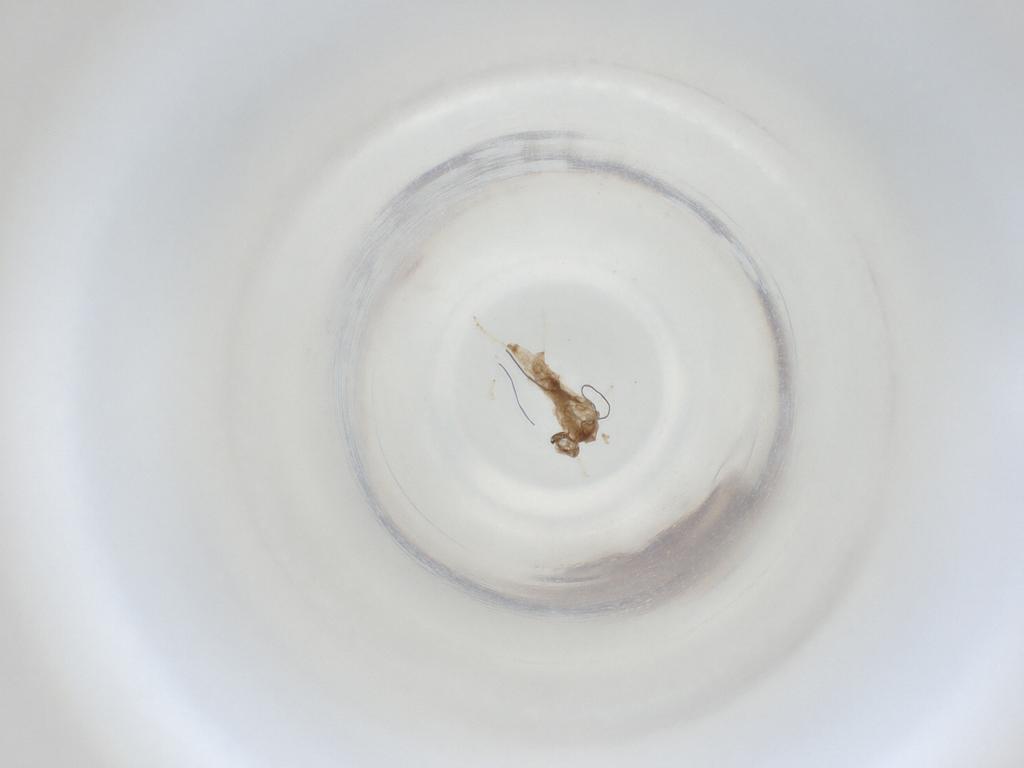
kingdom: Animalia
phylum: Arthropoda
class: Insecta
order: Diptera
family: Cecidomyiidae
